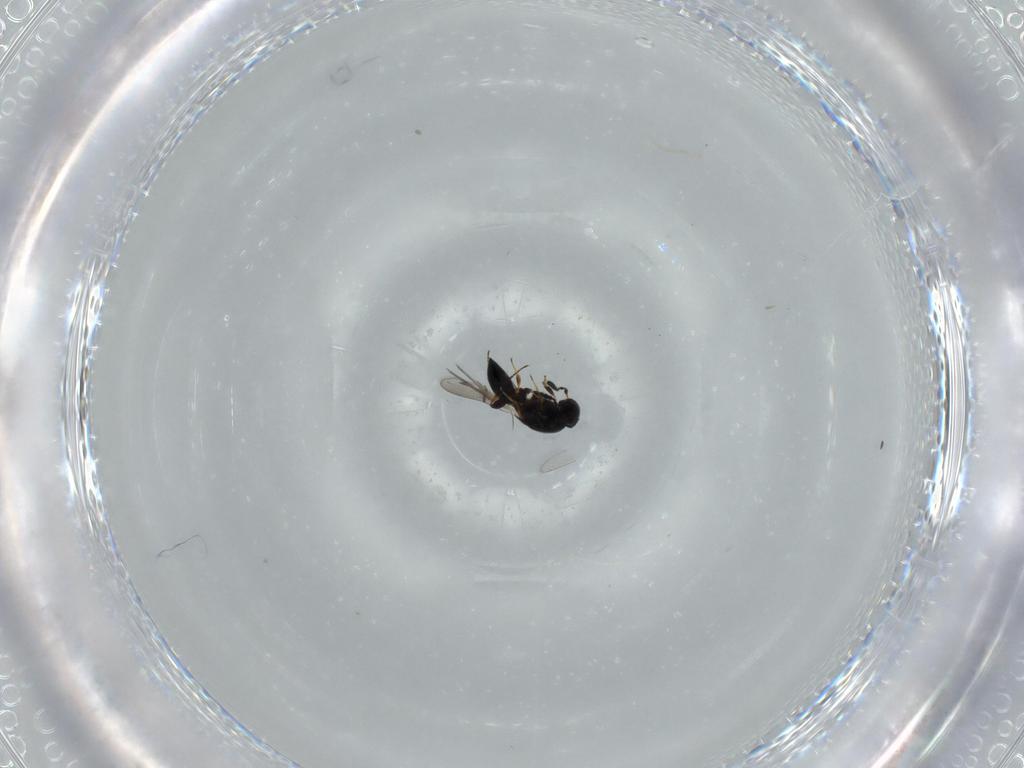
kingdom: Animalia
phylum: Arthropoda
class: Insecta
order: Hymenoptera
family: Platygastridae
